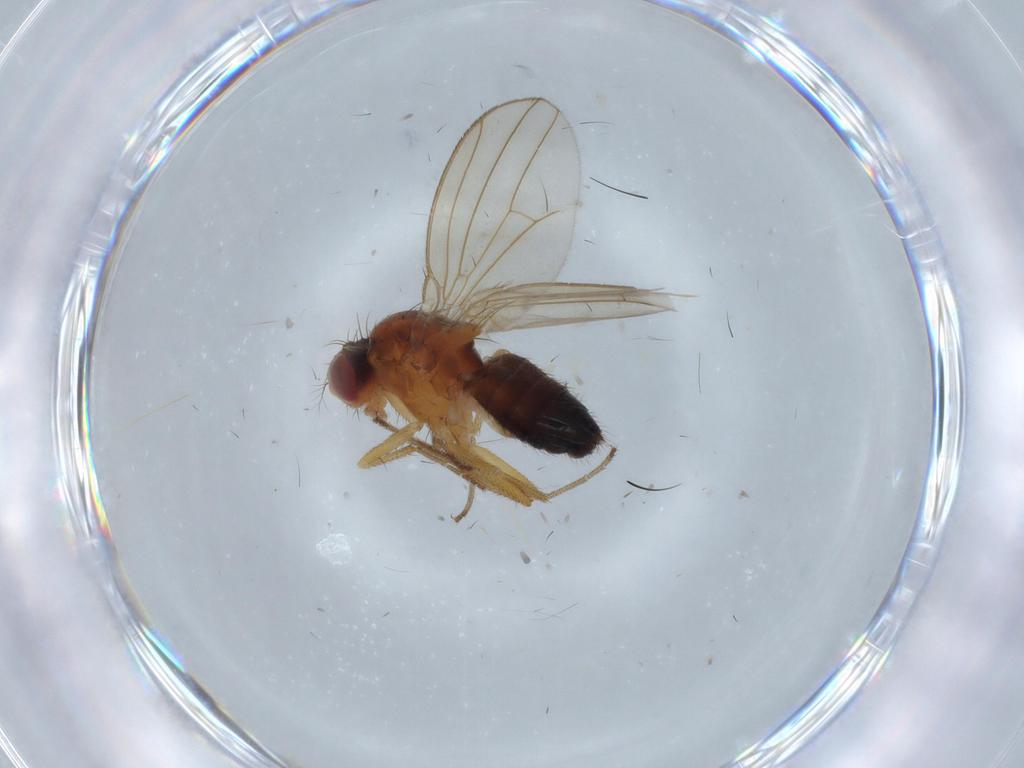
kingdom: Animalia
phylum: Arthropoda
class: Insecta
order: Diptera
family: Drosophilidae
